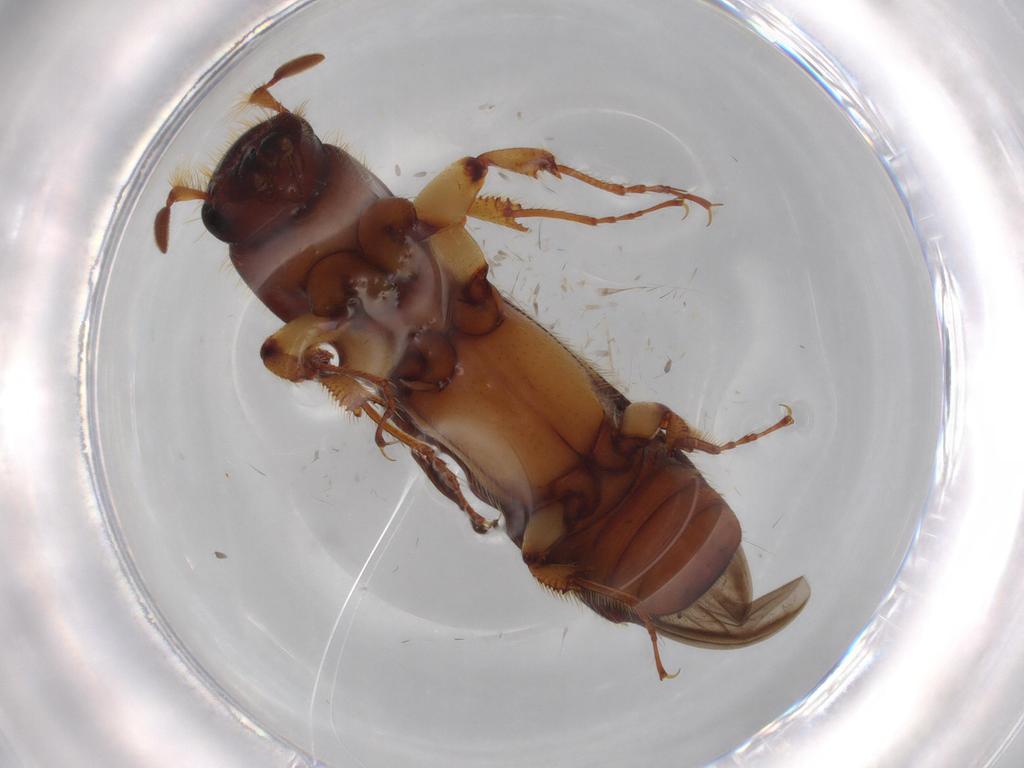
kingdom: Animalia
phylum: Arthropoda
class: Insecta
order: Coleoptera
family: Curculionidae
